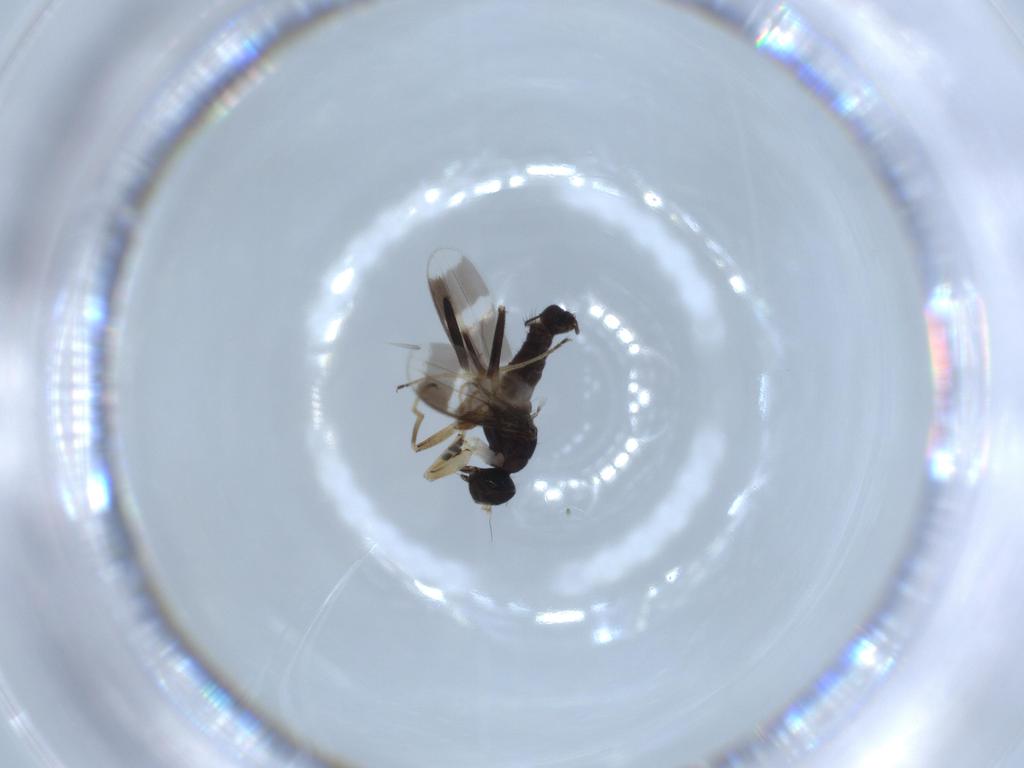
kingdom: Animalia
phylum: Arthropoda
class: Insecta
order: Diptera
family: Hybotidae
